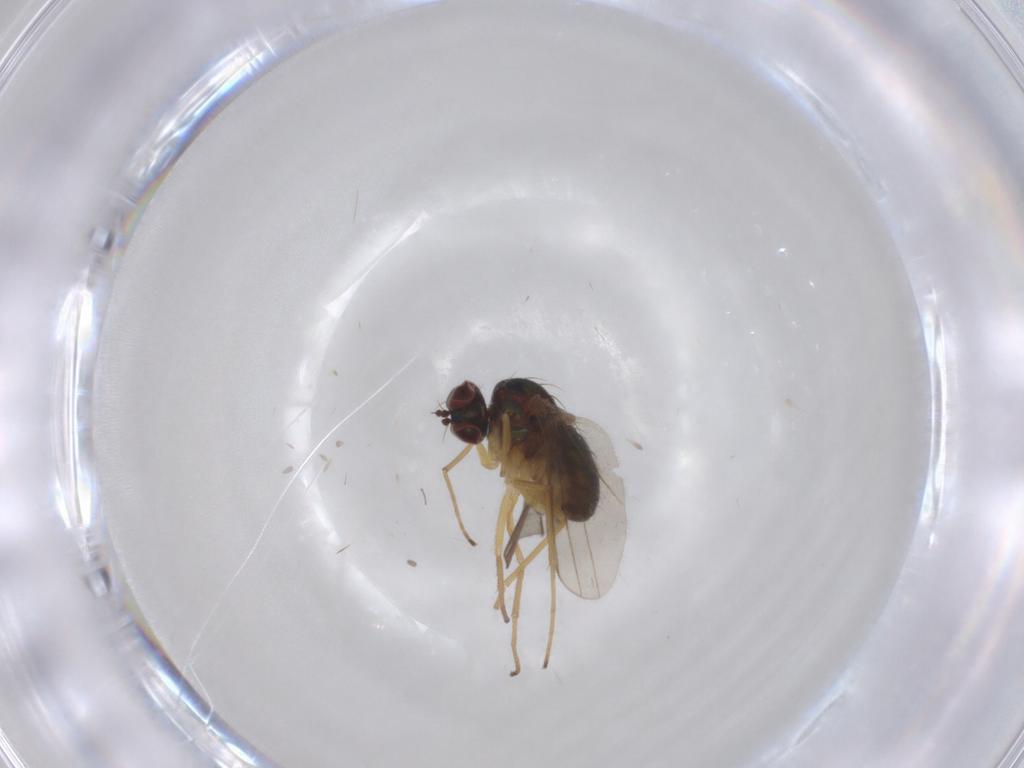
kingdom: Animalia
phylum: Arthropoda
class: Insecta
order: Diptera
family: Dolichopodidae
